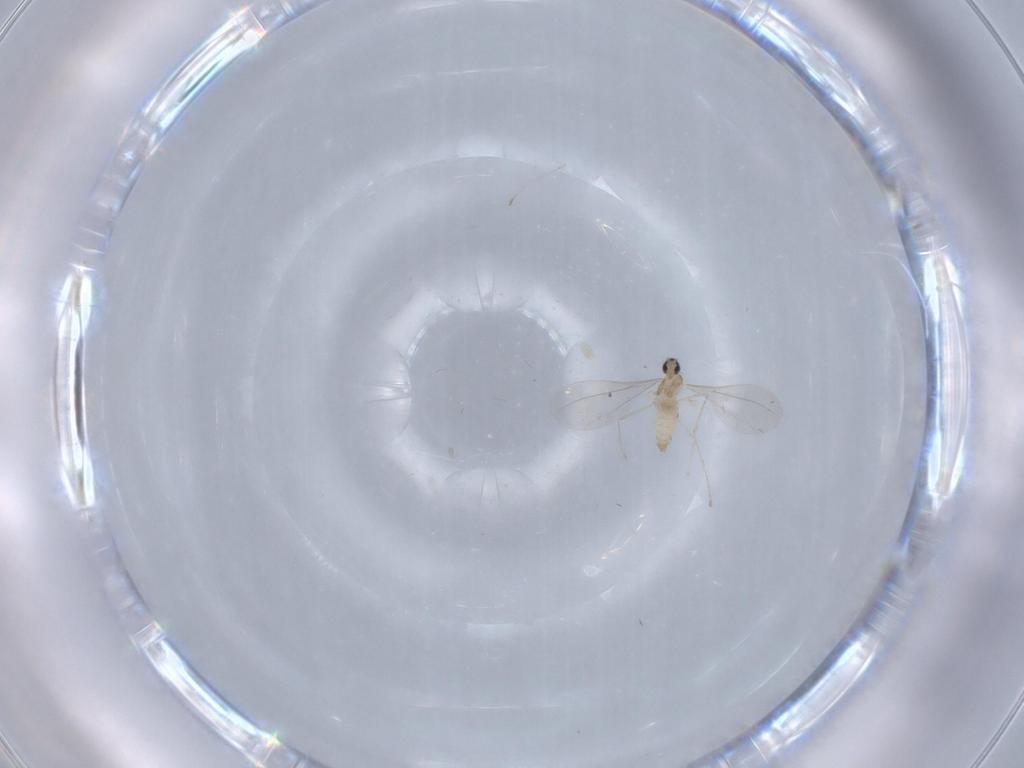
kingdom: Animalia
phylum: Arthropoda
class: Insecta
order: Diptera
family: Cecidomyiidae
